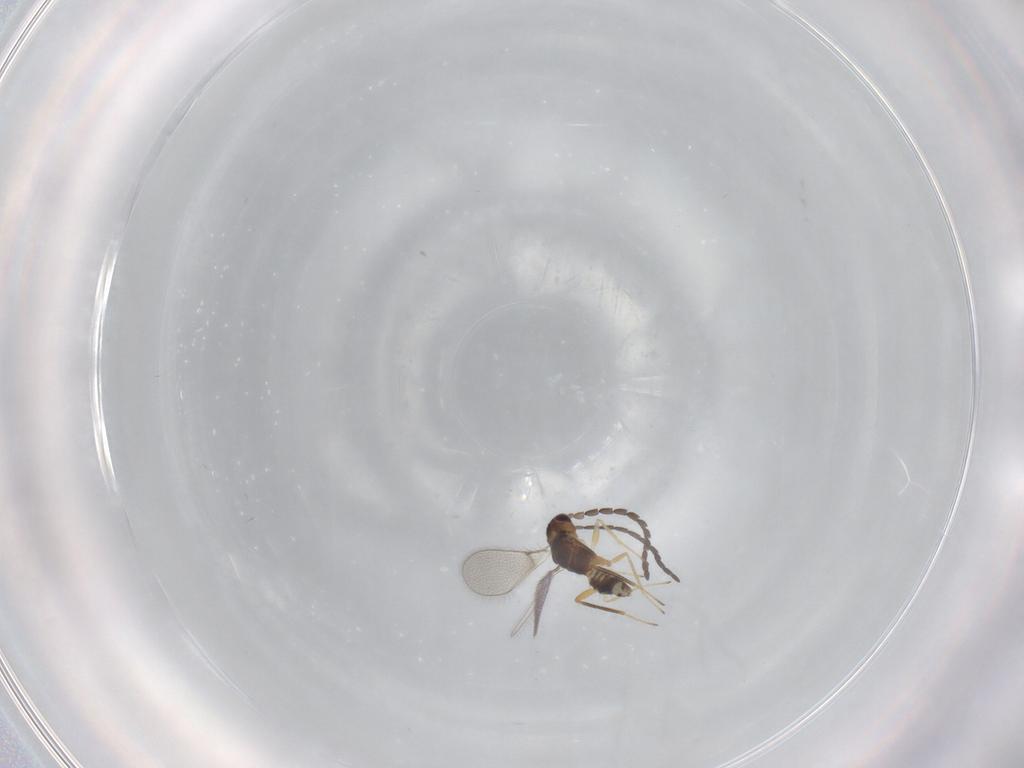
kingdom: Animalia
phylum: Arthropoda
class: Insecta
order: Hymenoptera
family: Mymaridae
